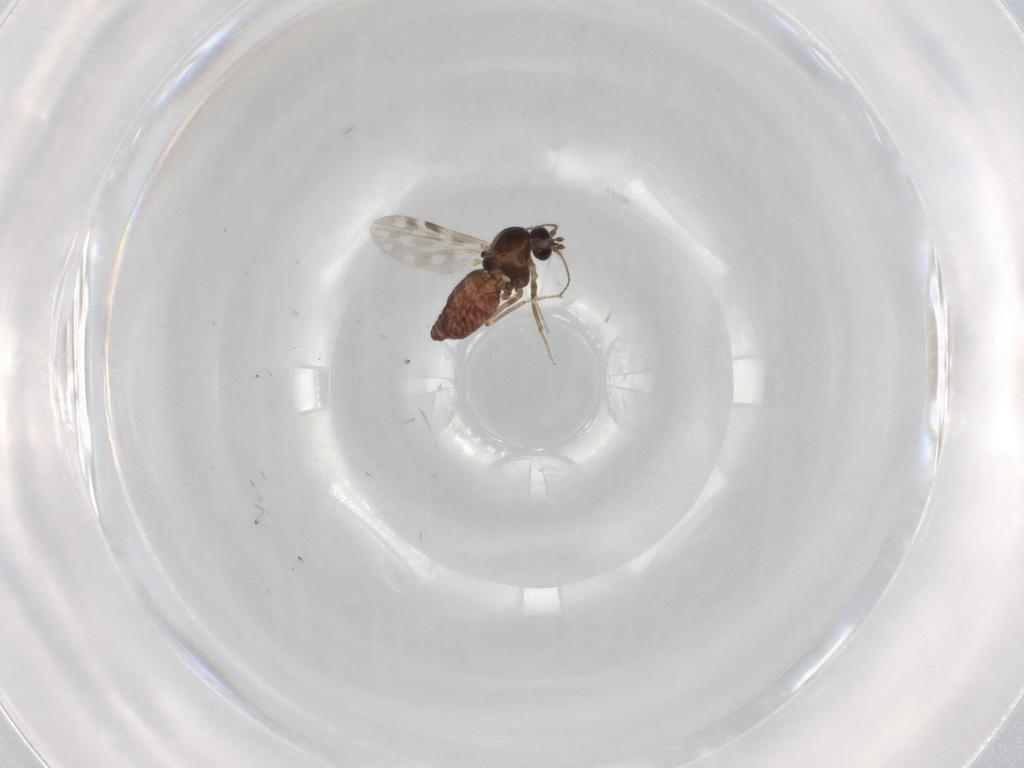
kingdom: Animalia
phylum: Arthropoda
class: Insecta
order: Diptera
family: Ceratopogonidae
